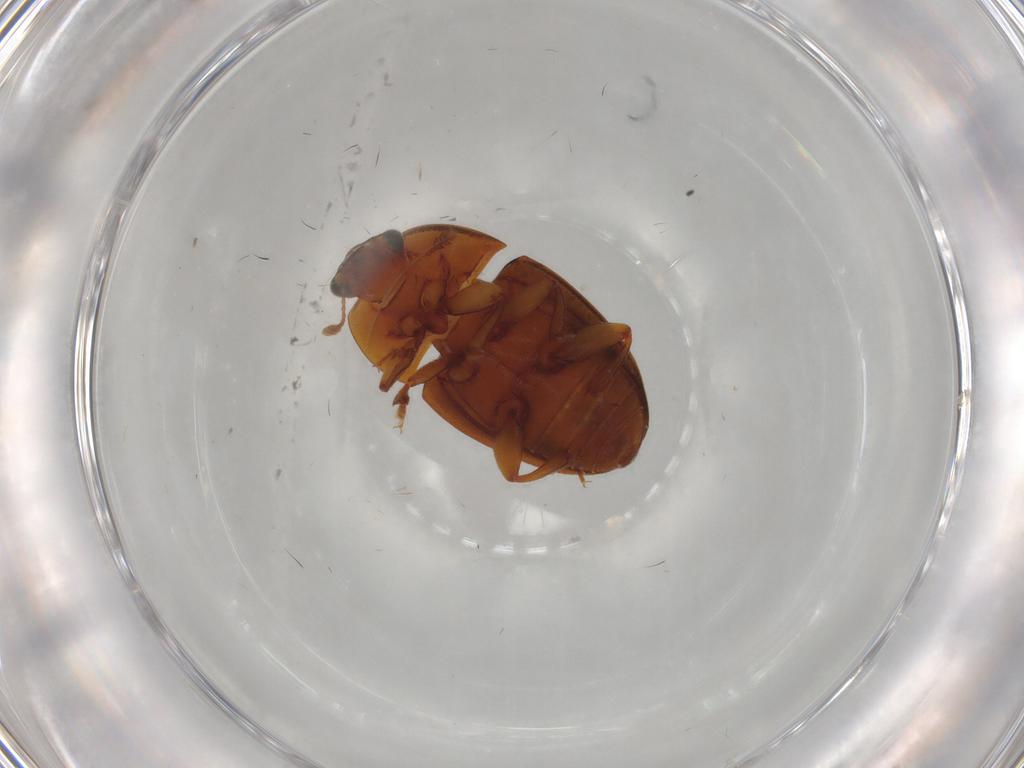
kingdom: Animalia
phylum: Arthropoda
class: Insecta
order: Coleoptera
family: Nitidulidae
